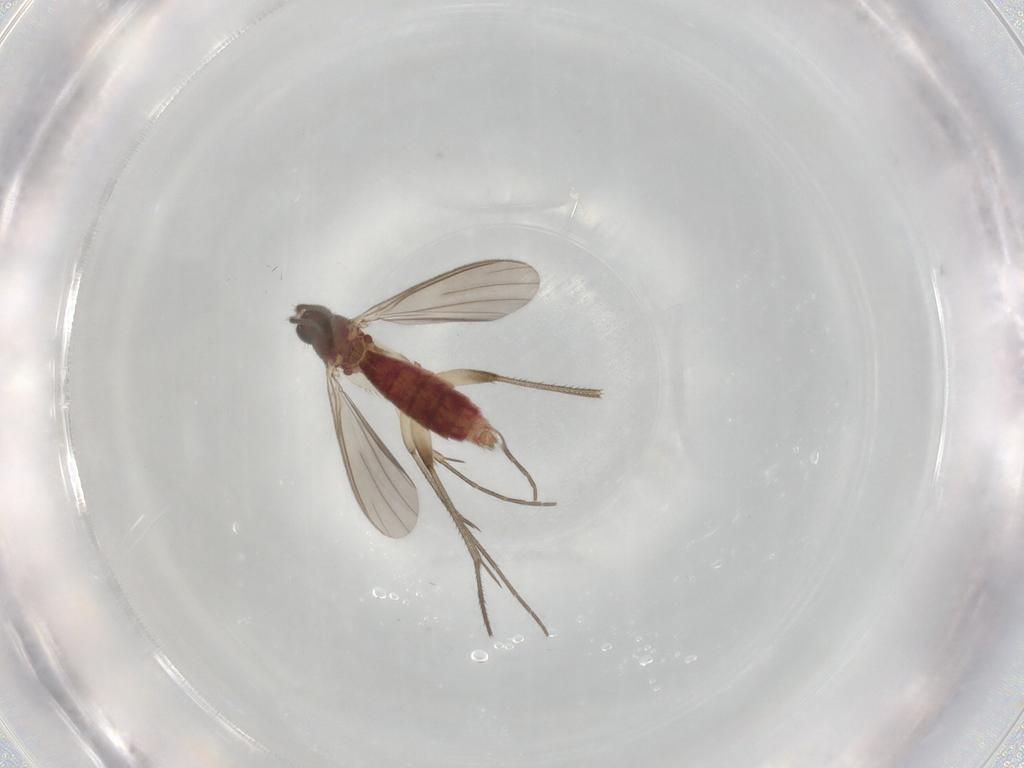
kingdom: Animalia
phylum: Arthropoda
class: Insecta
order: Diptera
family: Mycetophilidae
